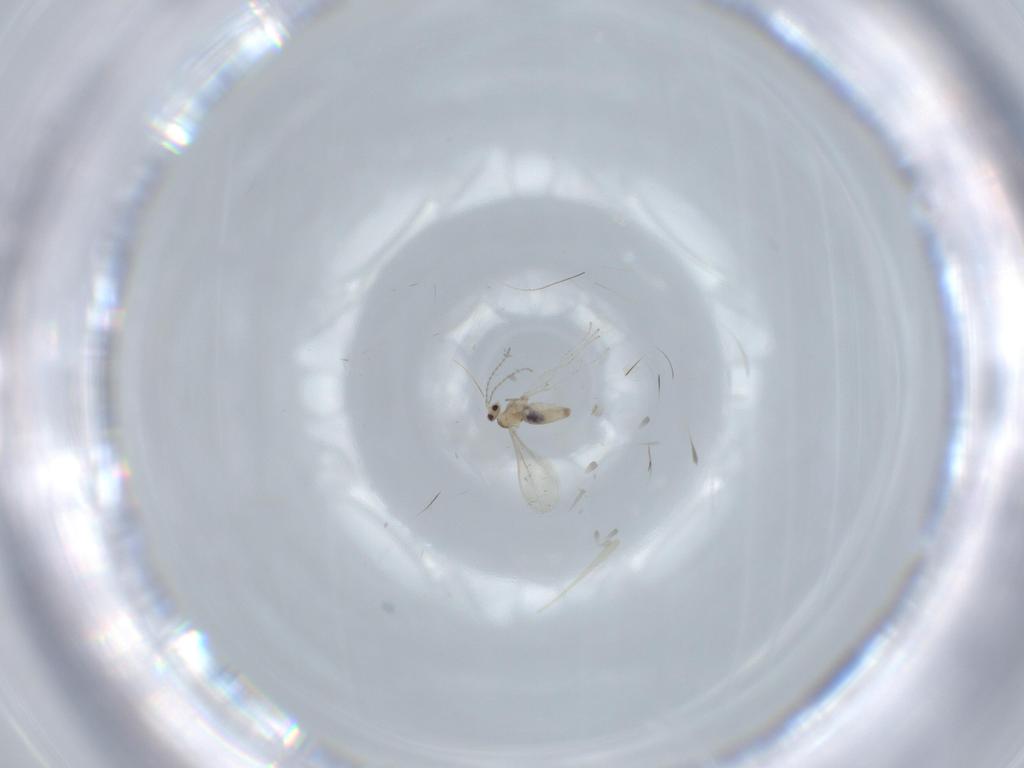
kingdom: Animalia
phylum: Arthropoda
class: Insecta
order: Diptera
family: Cecidomyiidae
